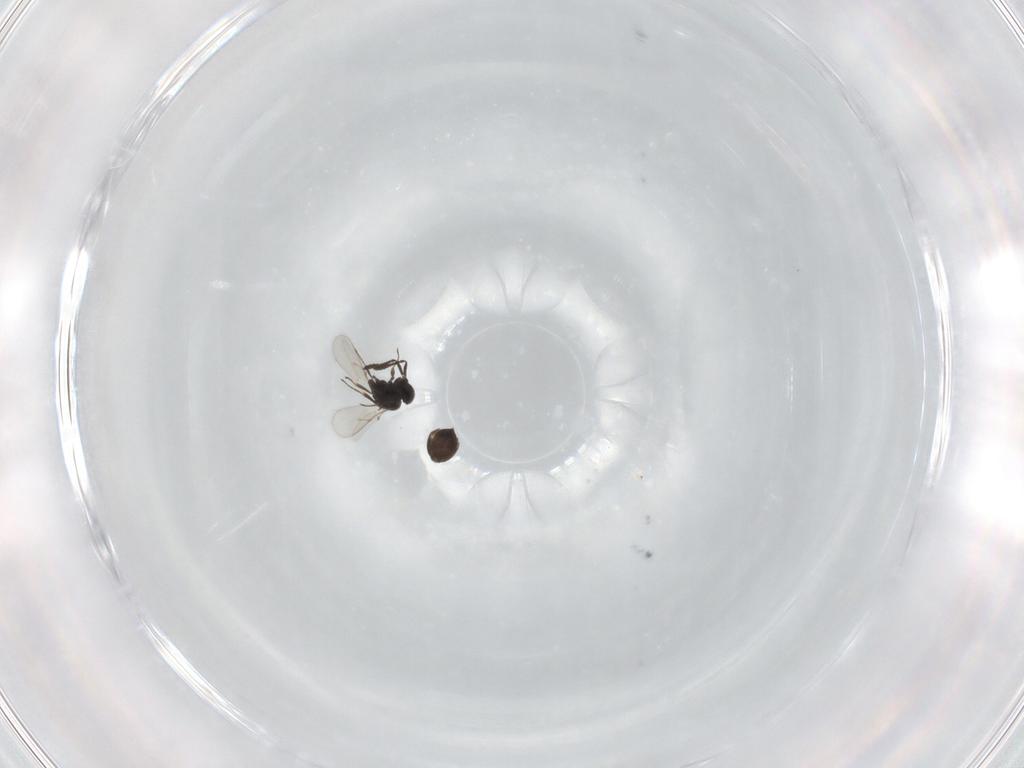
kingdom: Animalia
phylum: Arthropoda
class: Insecta
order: Hymenoptera
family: Scelionidae
